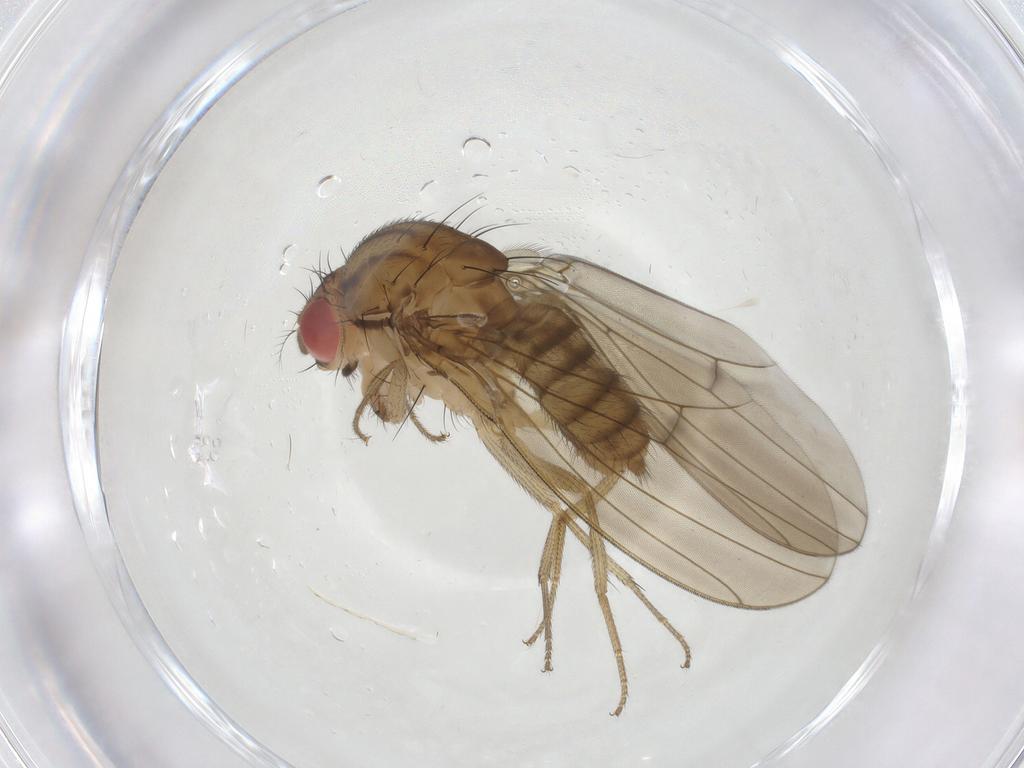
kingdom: Animalia
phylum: Arthropoda
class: Insecta
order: Diptera
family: Drosophilidae
